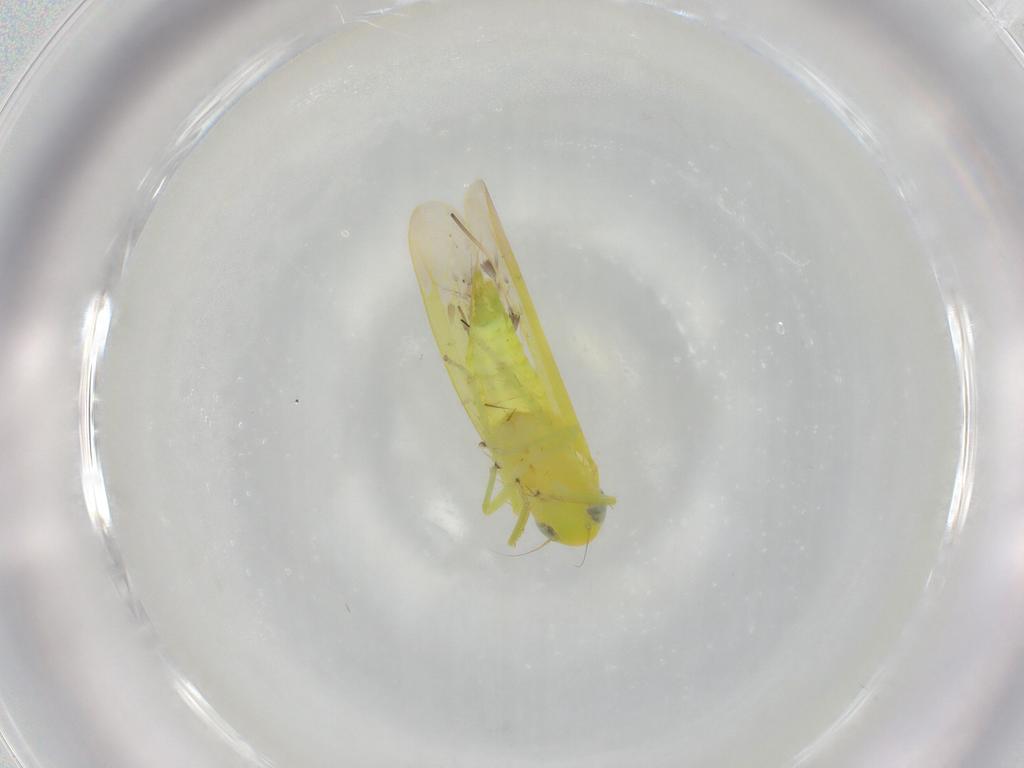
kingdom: Animalia
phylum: Arthropoda
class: Insecta
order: Hemiptera
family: Cicadellidae
